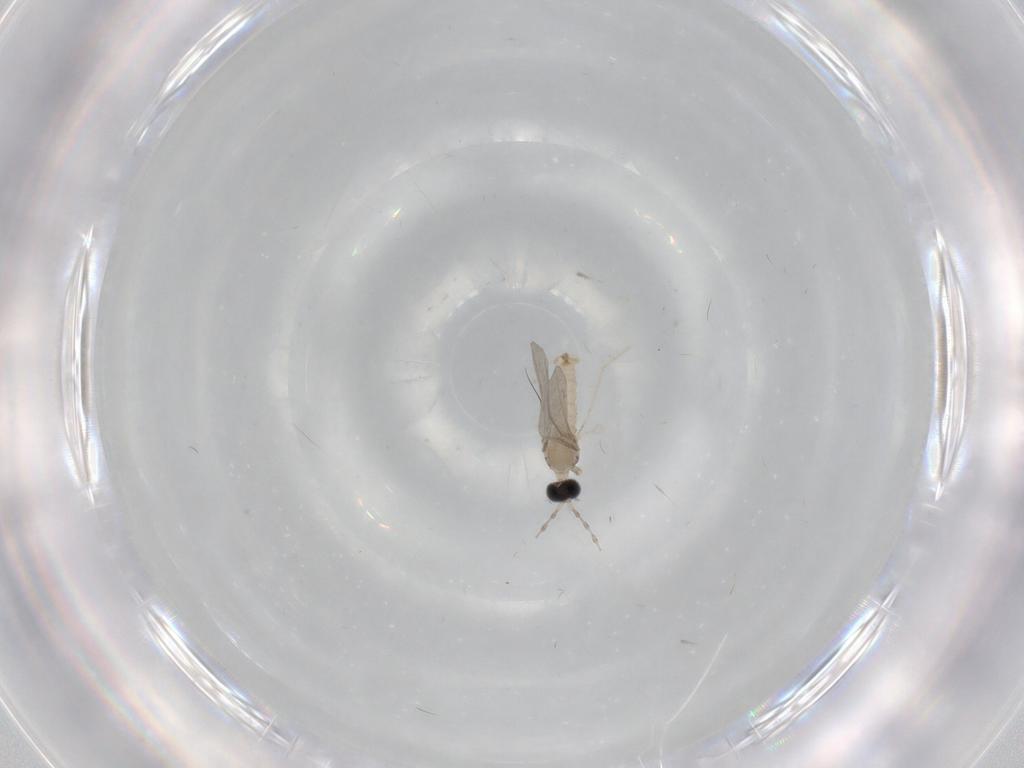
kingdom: Animalia
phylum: Arthropoda
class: Insecta
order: Diptera
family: Cecidomyiidae
